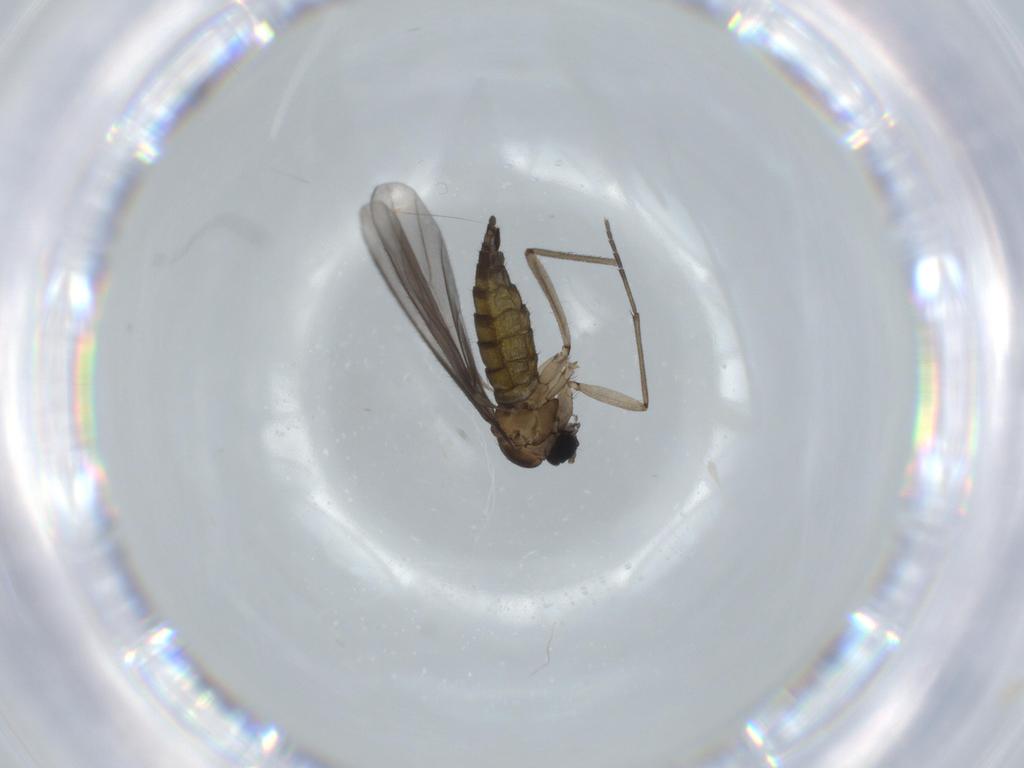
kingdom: Animalia
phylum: Arthropoda
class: Insecta
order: Diptera
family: Sciaridae
